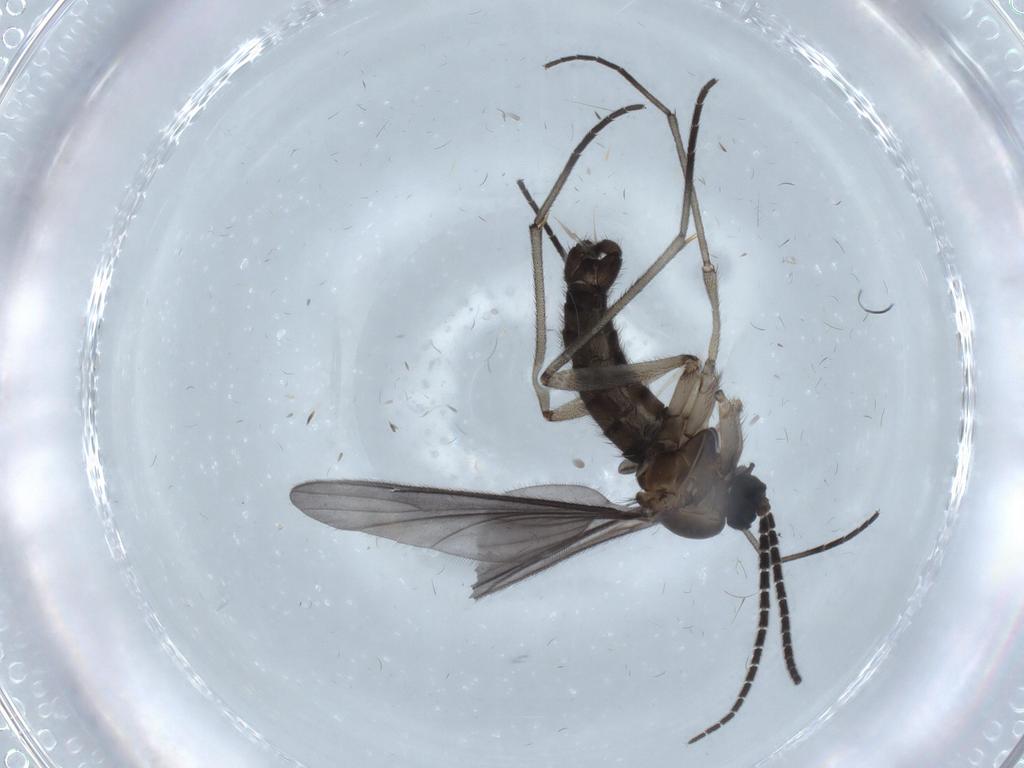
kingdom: Animalia
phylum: Arthropoda
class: Insecta
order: Diptera
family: Sciaridae
